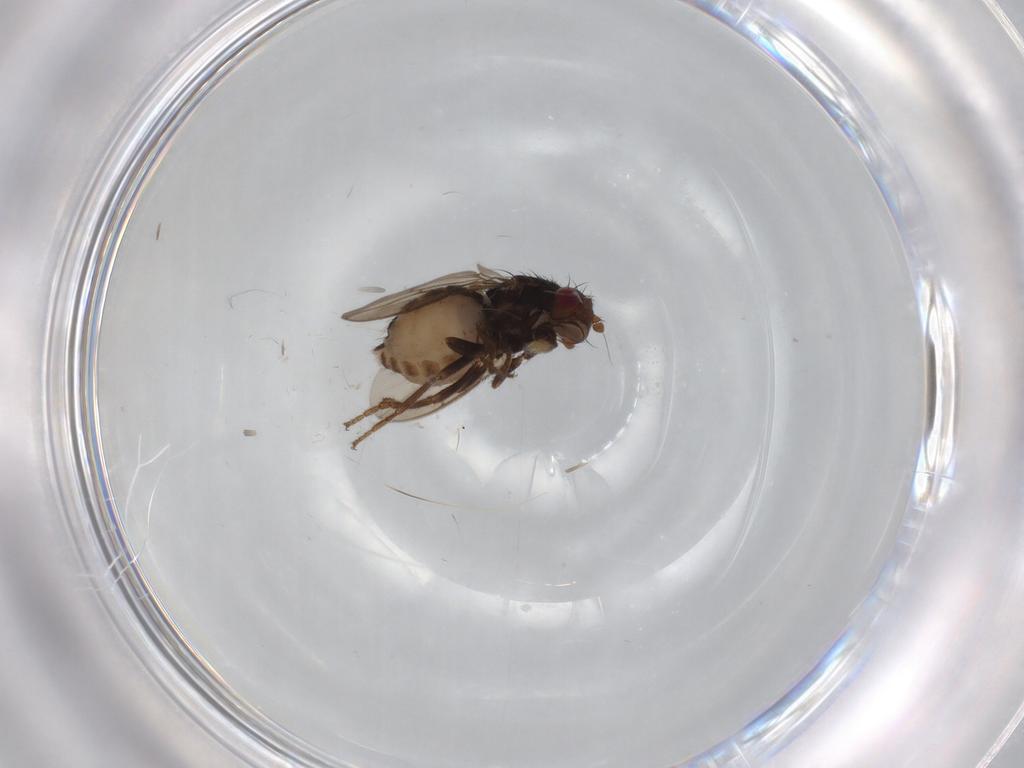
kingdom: Animalia
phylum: Arthropoda
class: Insecta
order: Diptera
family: Sphaeroceridae
